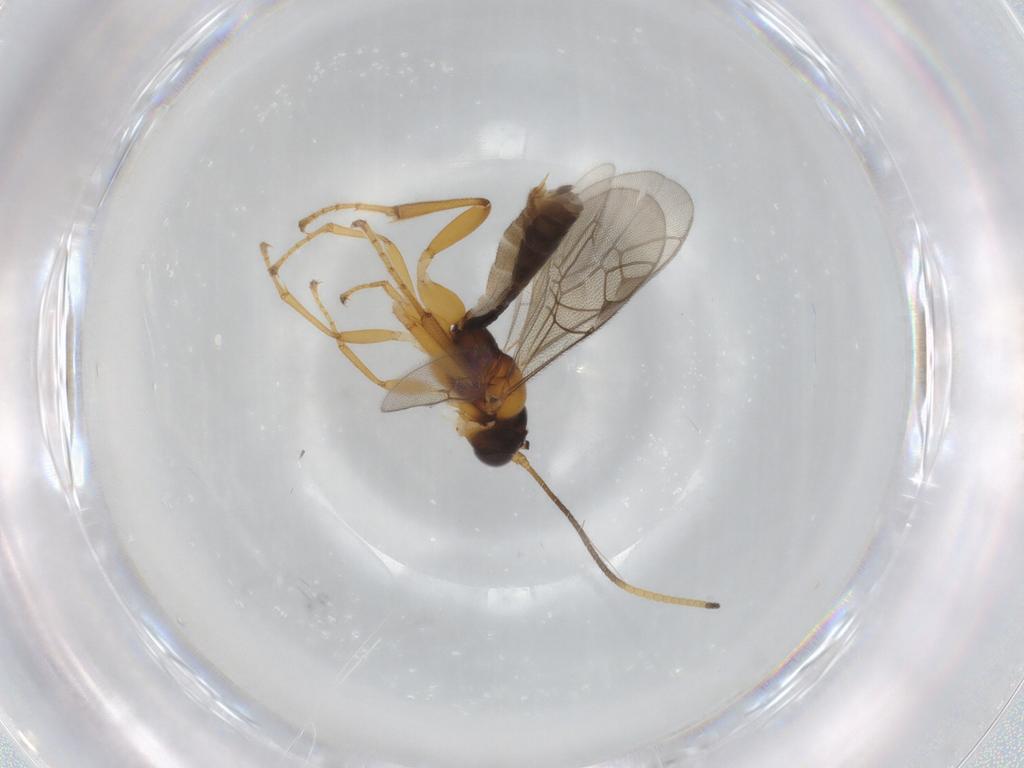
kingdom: Animalia
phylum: Arthropoda
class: Insecta
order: Hymenoptera
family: Ichneumonidae
